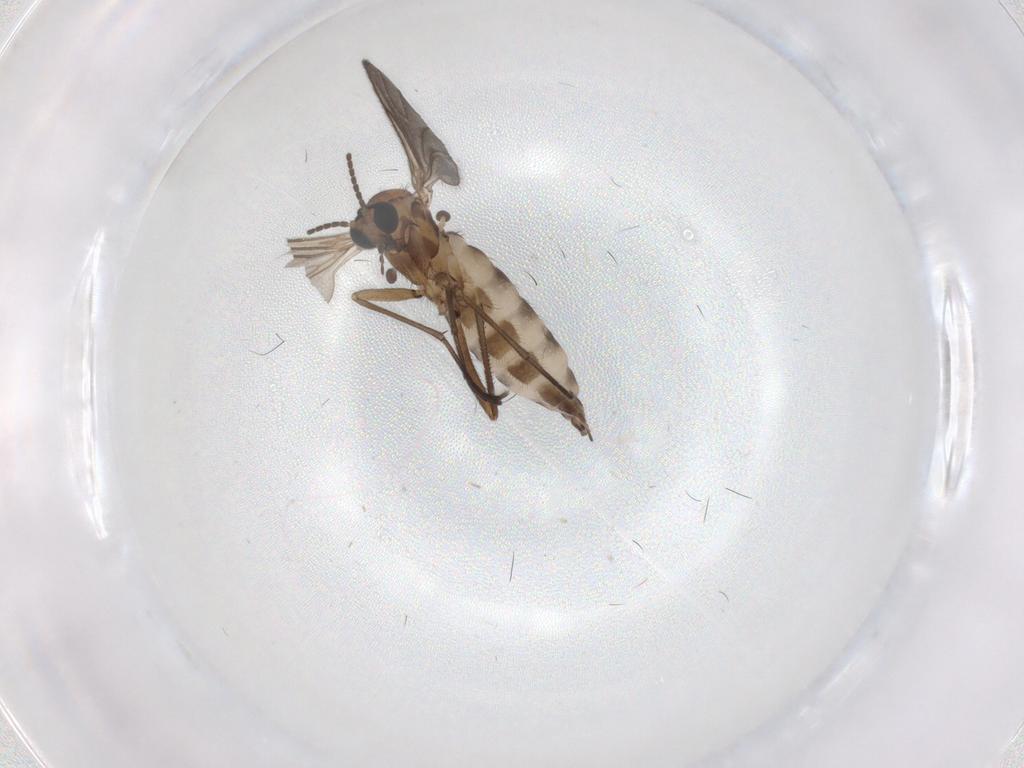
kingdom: Animalia
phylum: Arthropoda
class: Insecta
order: Diptera
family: Sciaridae
